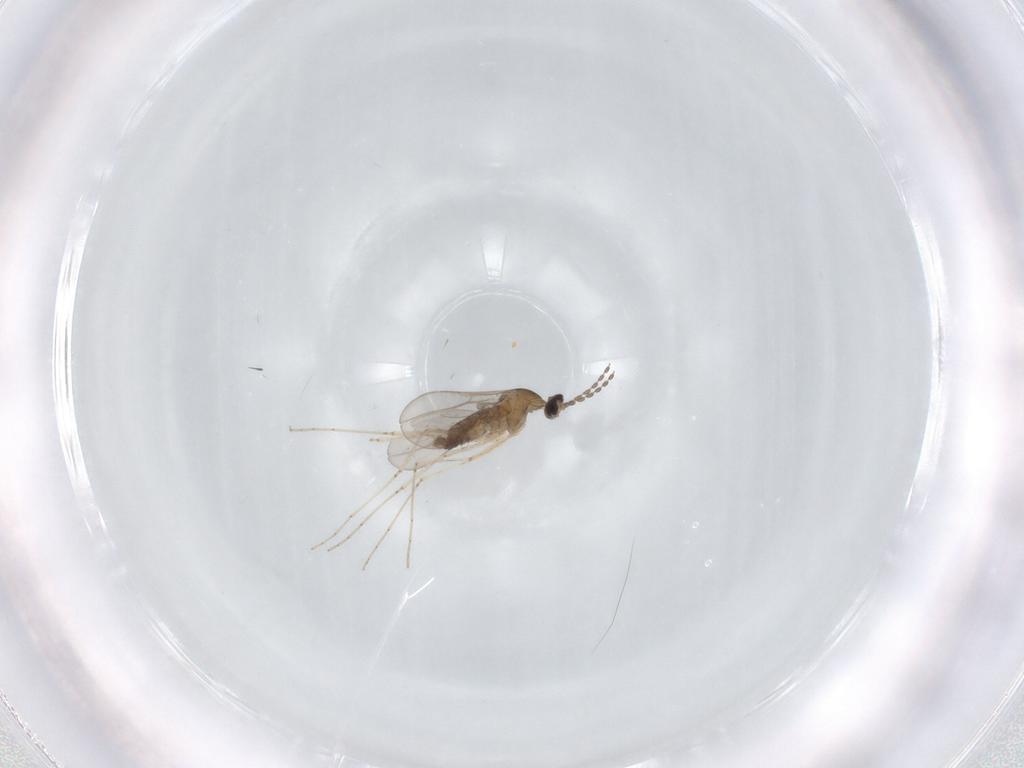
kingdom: Animalia
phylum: Arthropoda
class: Insecta
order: Diptera
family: Cecidomyiidae
